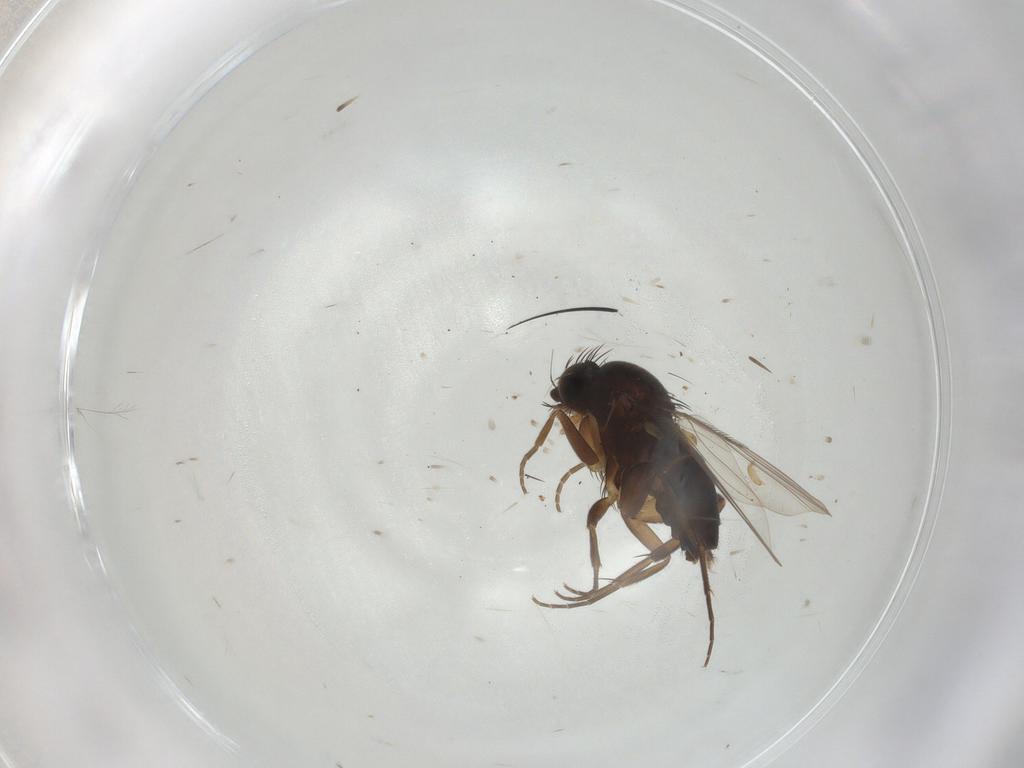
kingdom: Animalia
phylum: Arthropoda
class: Insecta
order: Diptera
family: Phoridae
